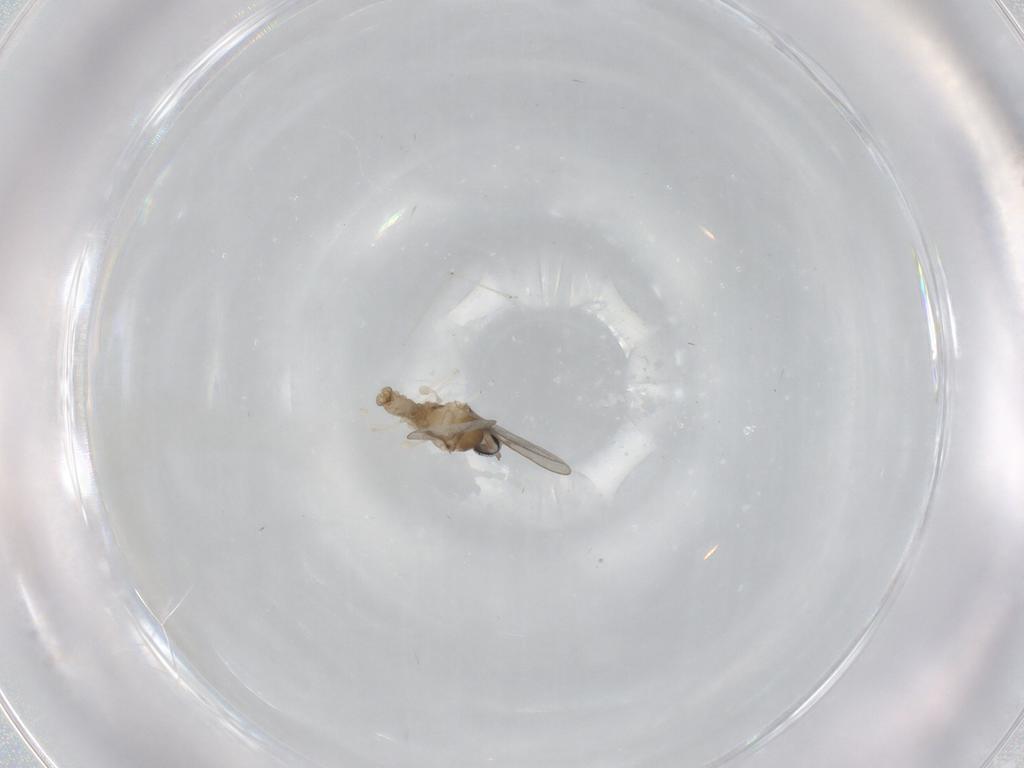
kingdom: Animalia
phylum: Arthropoda
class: Insecta
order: Diptera
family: Cecidomyiidae
